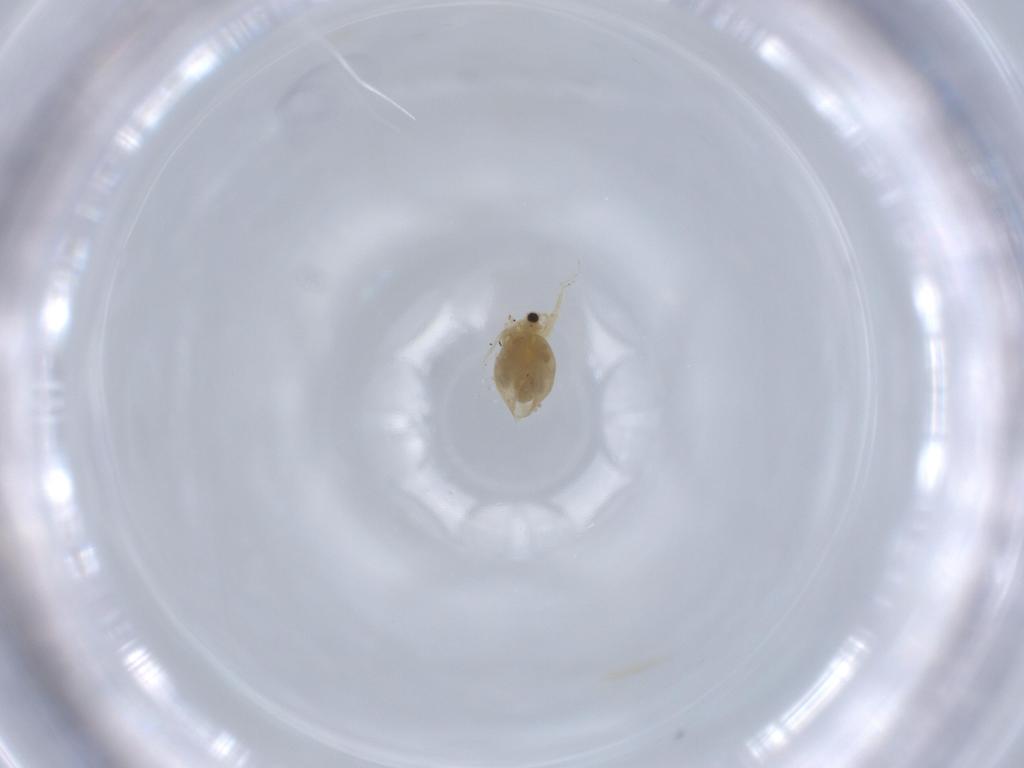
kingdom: Animalia
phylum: Arthropoda
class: Branchiopoda
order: Diplostraca
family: Daphniidae
